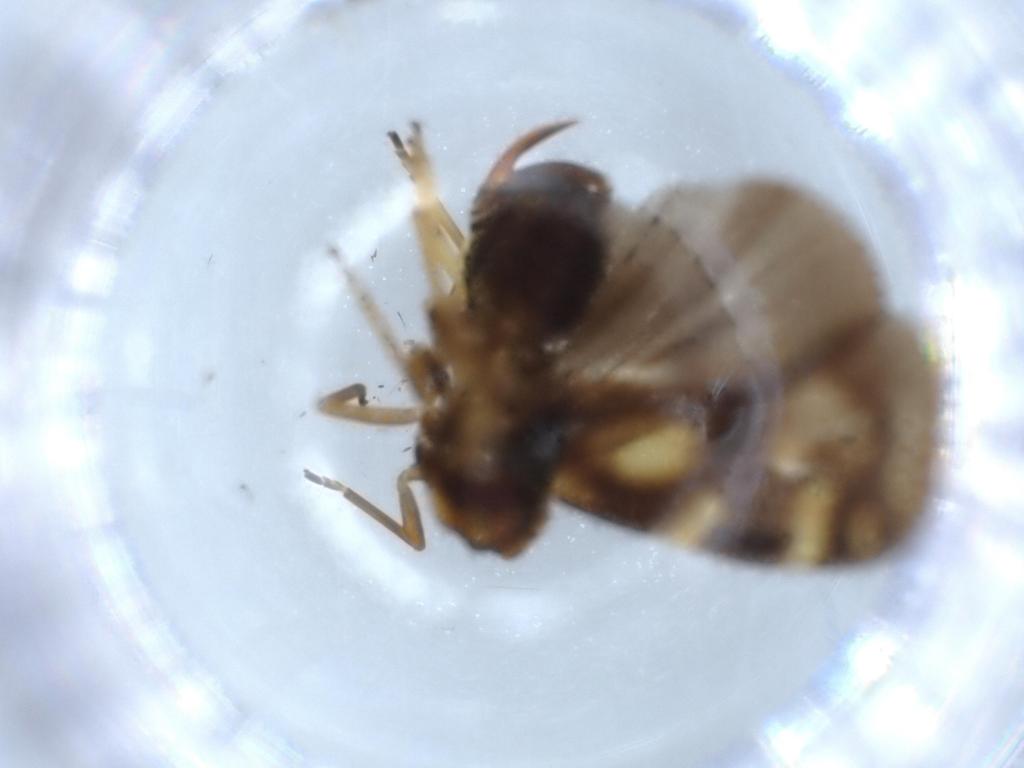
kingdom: Animalia
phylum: Arthropoda
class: Insecta
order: Hemiptera
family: Cixiidae
